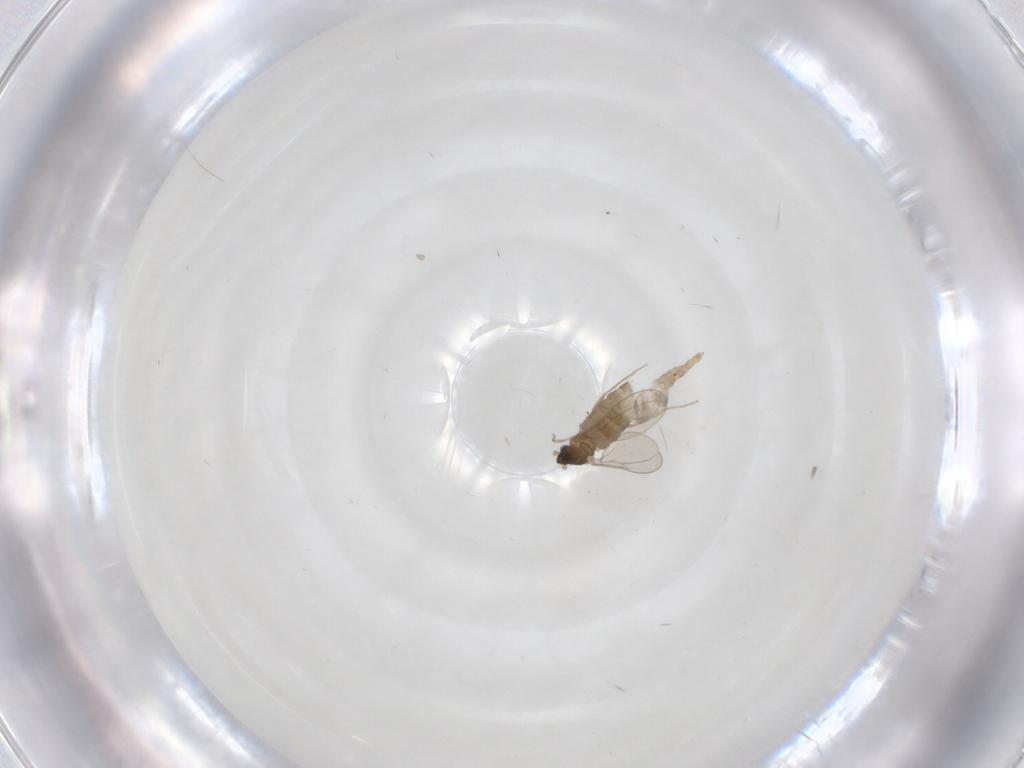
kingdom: Animalia
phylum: Arthropoda
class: Insecta
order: Diptera
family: Cecidomyiidae
